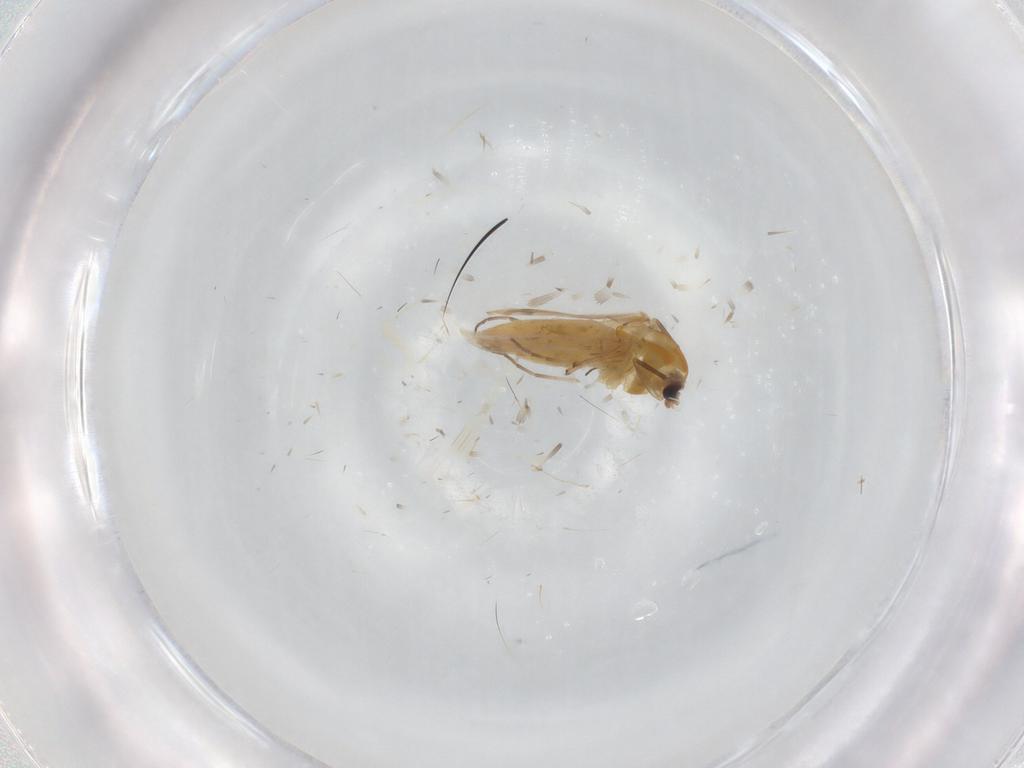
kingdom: Animalia
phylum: Arthropoda
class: Insecta
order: Diptera
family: Chironomidae
